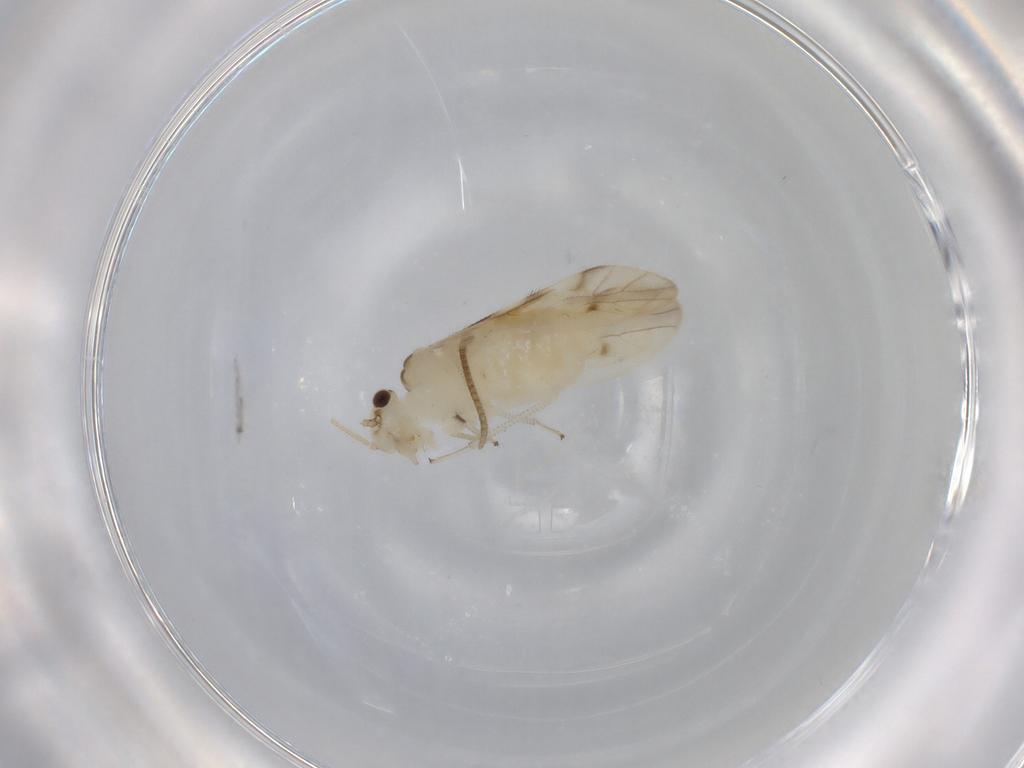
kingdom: Animalia
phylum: Arthropoda
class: Insecta
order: Psocodea
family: Caeciliusidae
